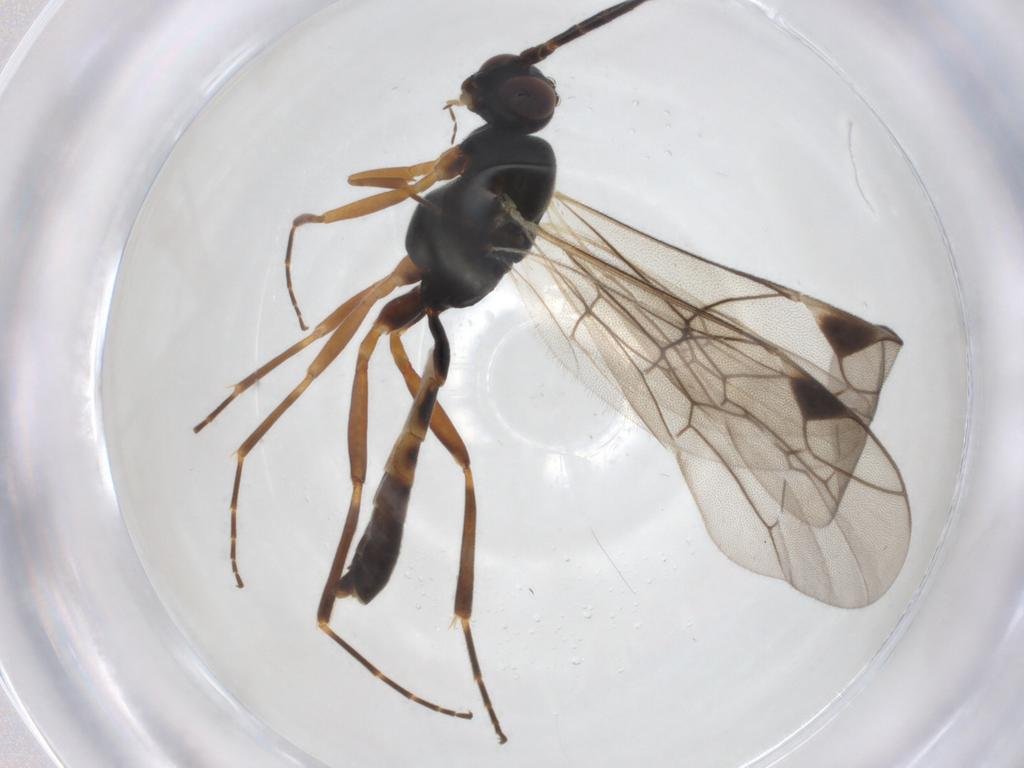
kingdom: Animalia
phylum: Arthropoda
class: Insecta
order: Hymenoptera
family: Ichneumonidae
